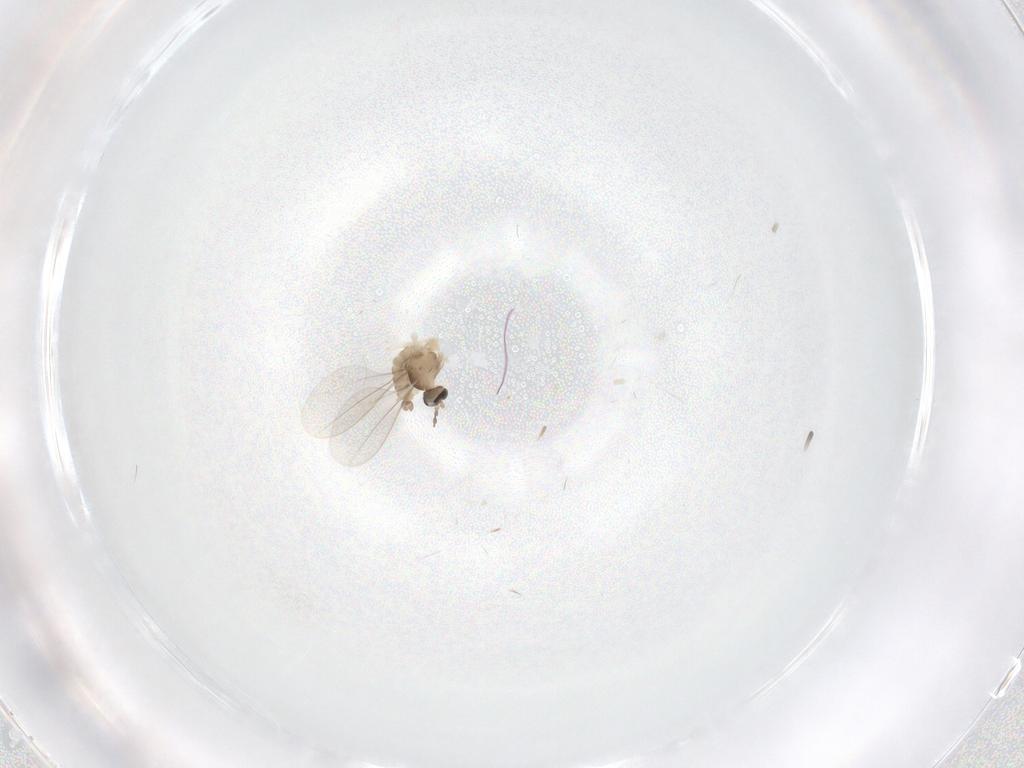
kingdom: Animalia
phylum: Arthropoda
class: Insecta
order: Diptera
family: Cecidomyiidae
